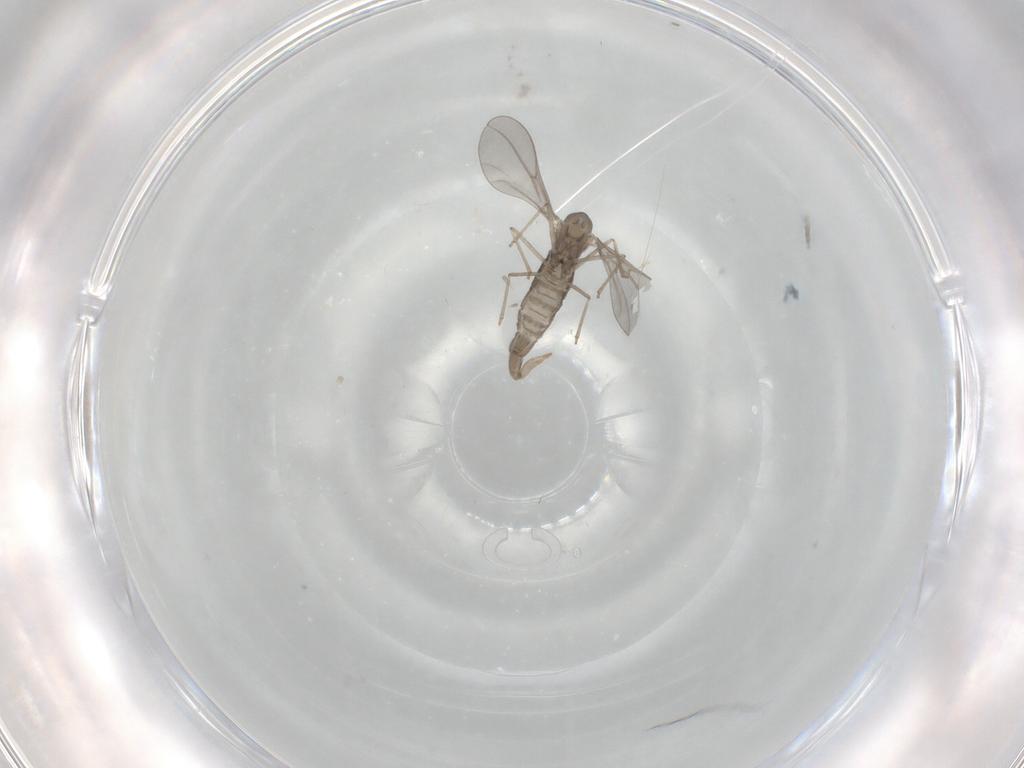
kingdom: Animalia
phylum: Arthropoda
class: Insecta
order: Diptera
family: Cecidomyiidae
